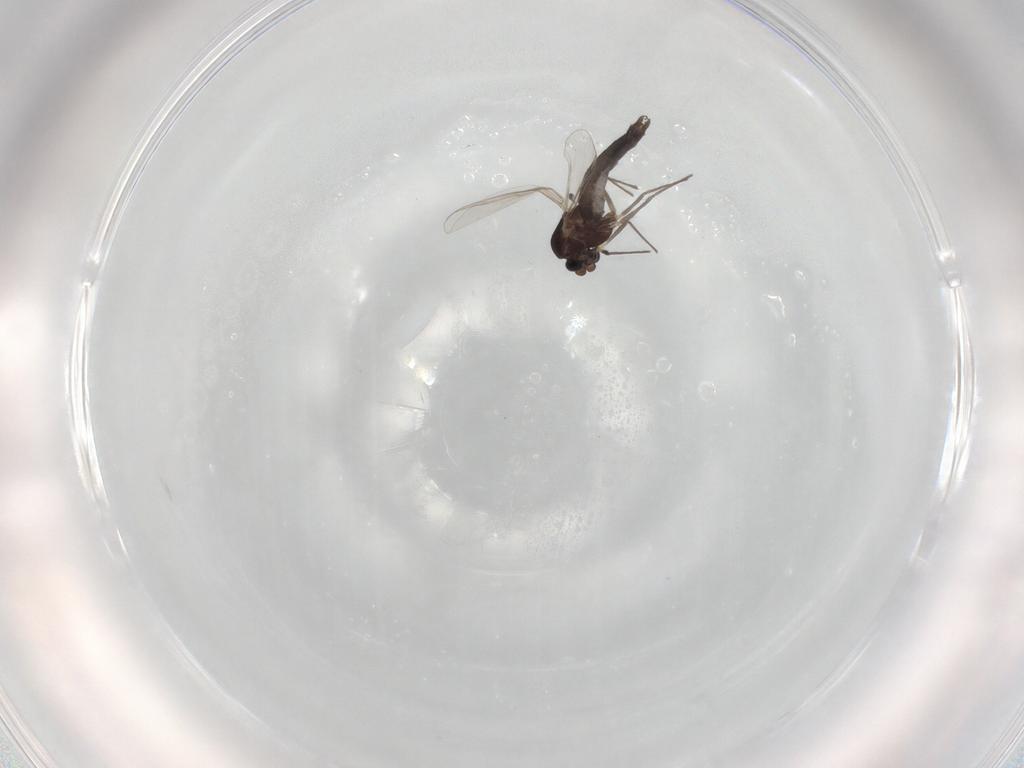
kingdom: Animalia
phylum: Arthropoda
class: Insecta
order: Diptera
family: Chironomidae
